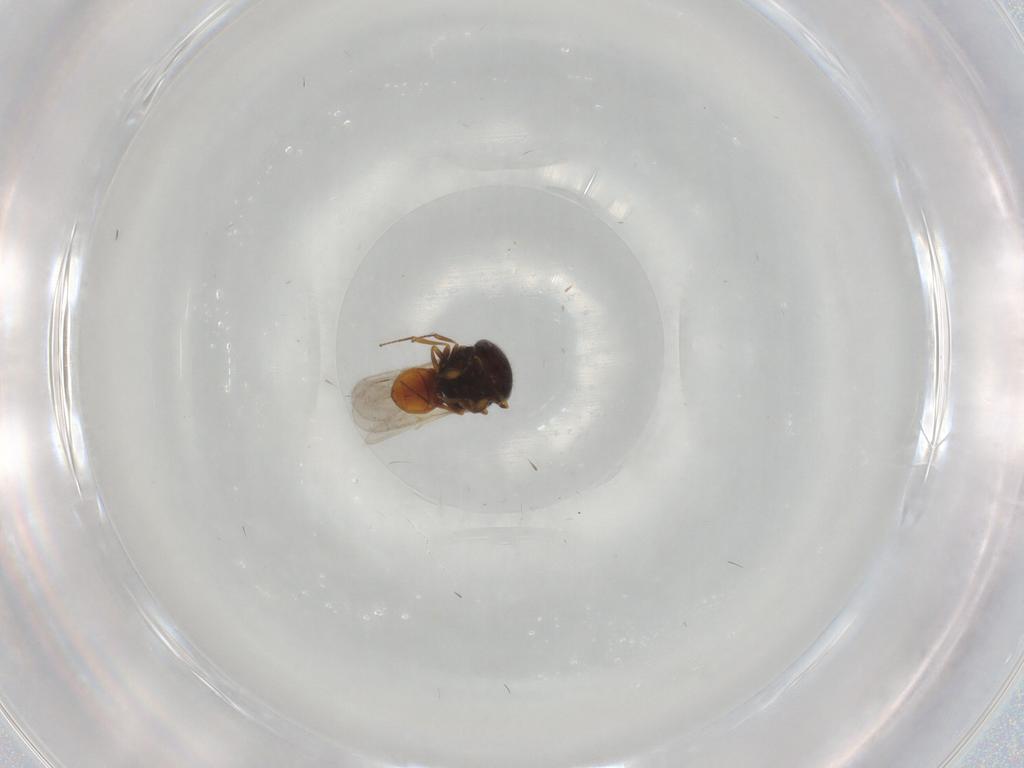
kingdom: Animalia
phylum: Arthropoda
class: Insecta
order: Hymenoptera
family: Scelionidae
